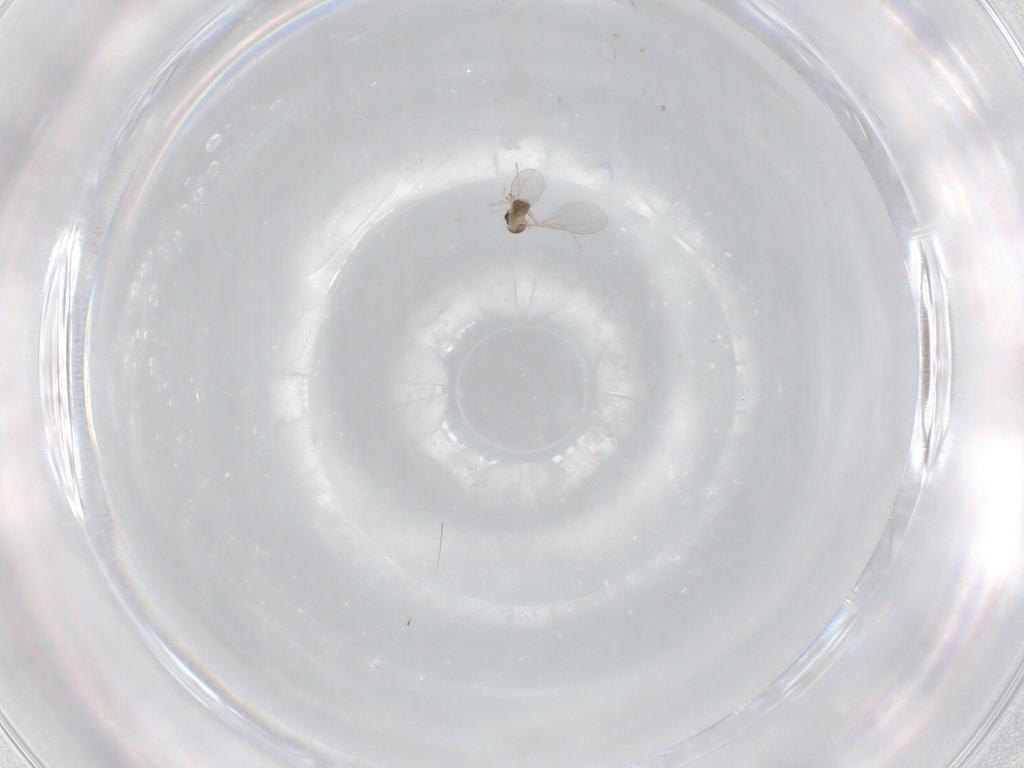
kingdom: Animalia
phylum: Arthropoda
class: Insecta
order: Diptera
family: Cecidomyiidae
